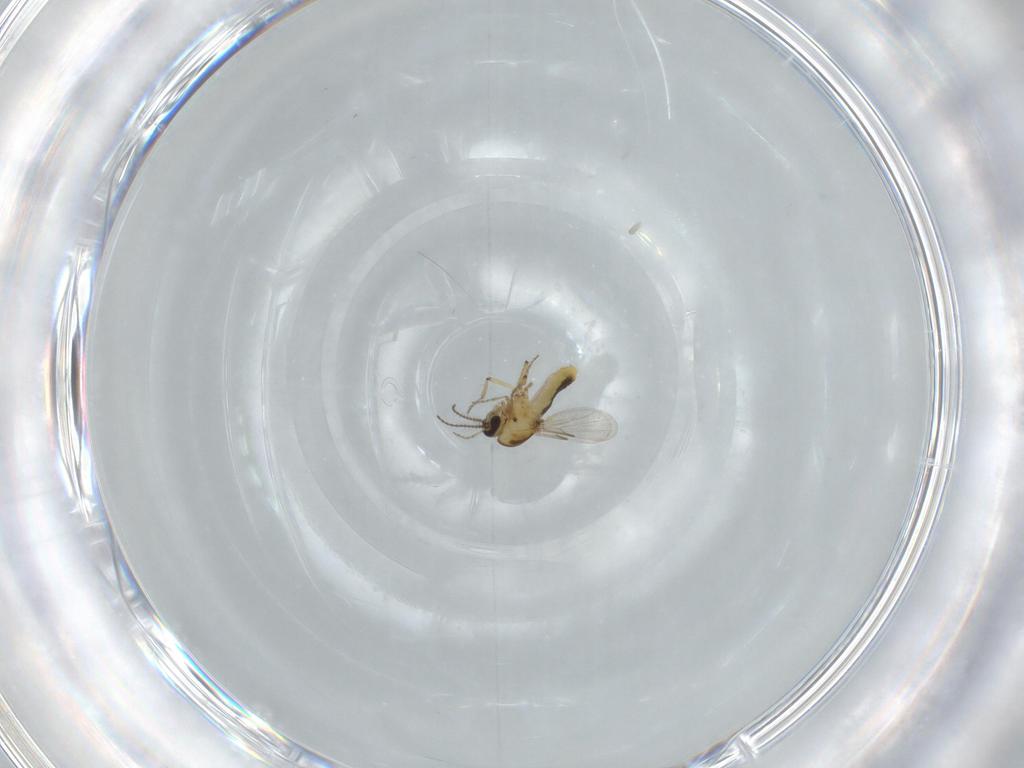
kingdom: Animalia
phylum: Arthropoda
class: Insecta
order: Diptera
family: Ceratopogonidae
